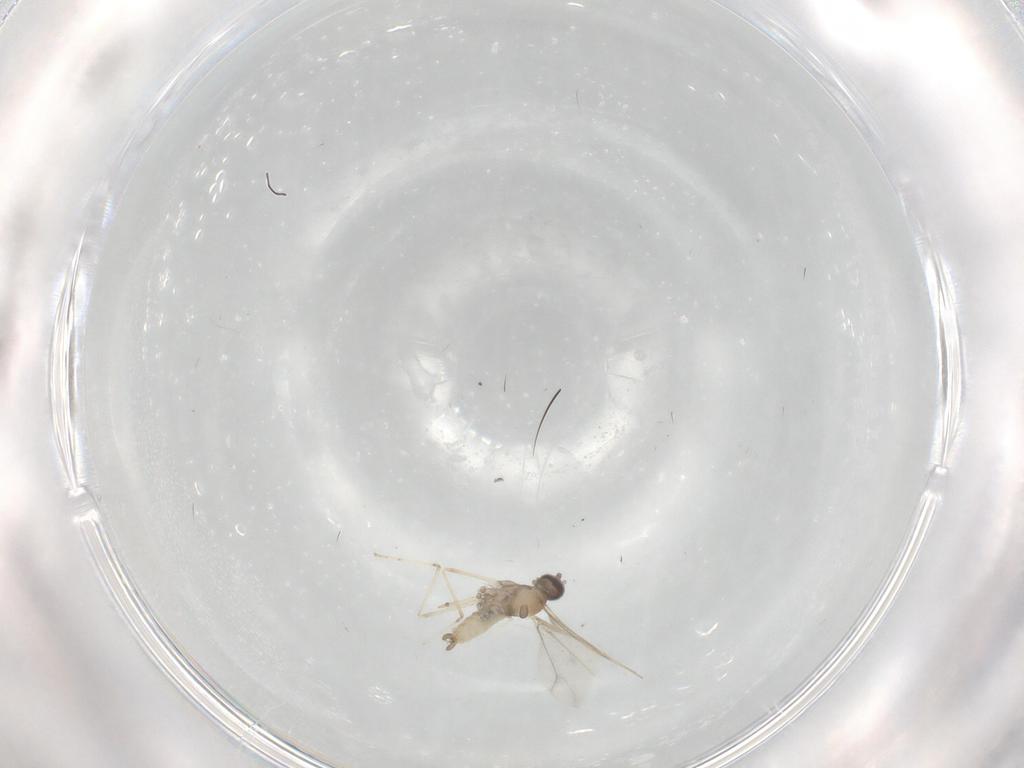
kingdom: Animalia
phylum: Arthropoda
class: Insecta
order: Diptera
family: Cecidomyiidae
